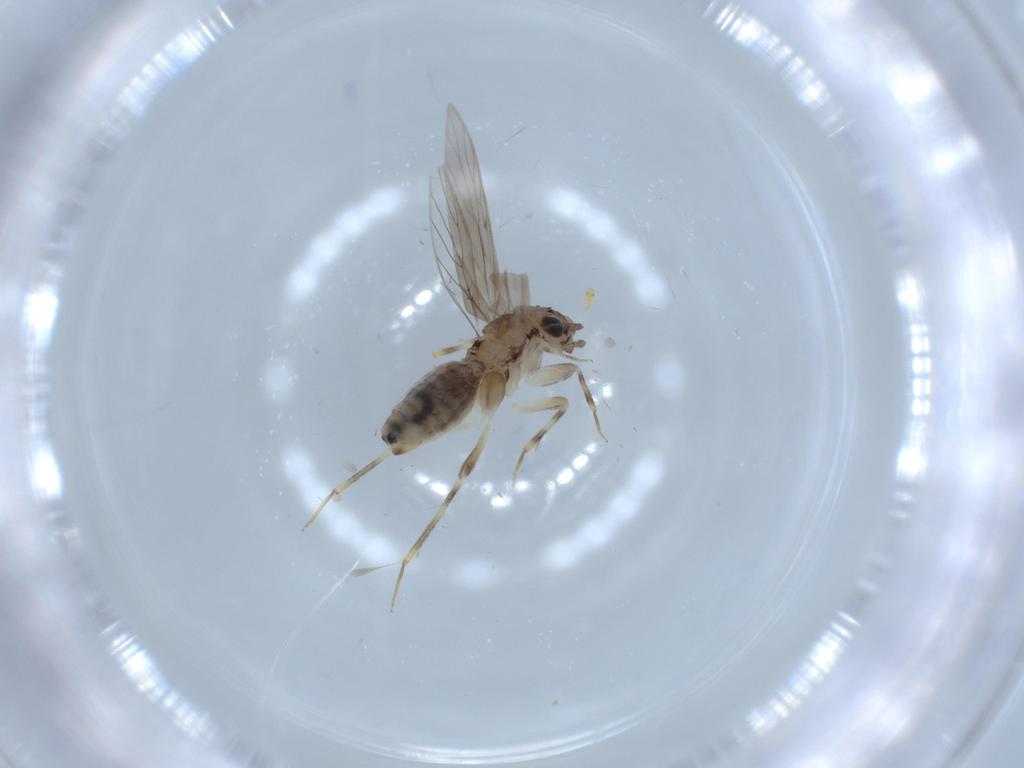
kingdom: Animalia
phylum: Arthropoda
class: Insecta
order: Psocodea
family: Lepidopsocidae
